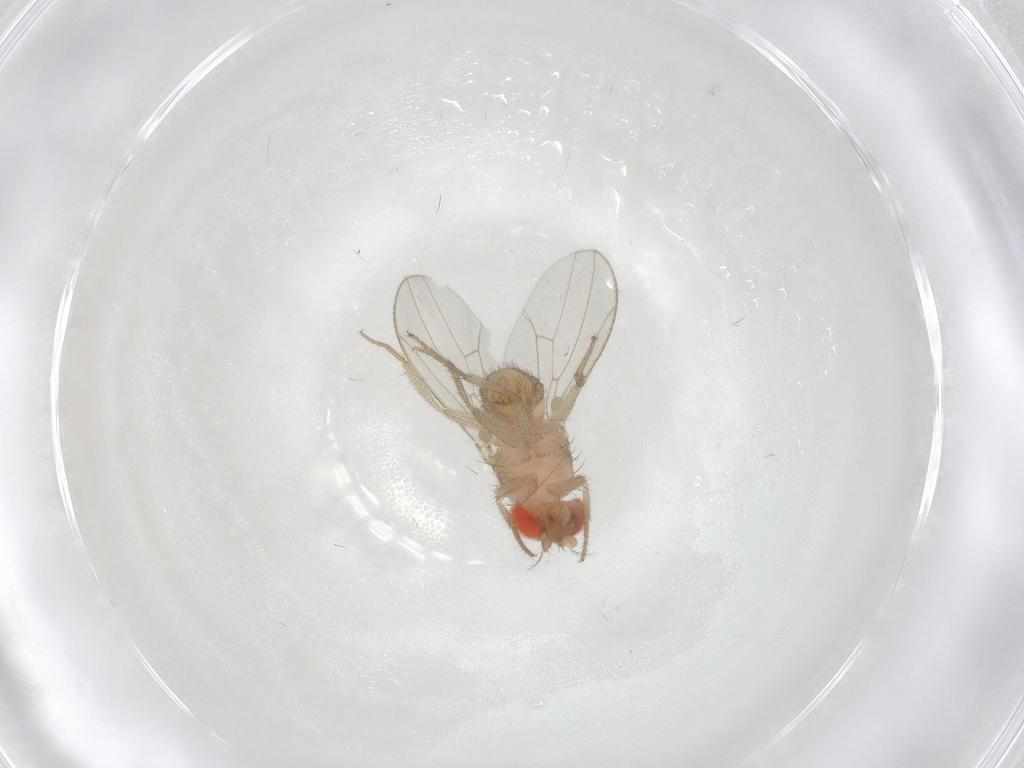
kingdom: Animalia
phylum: Arthropoda
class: Insecta
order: Diptera
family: Drosophilidae
